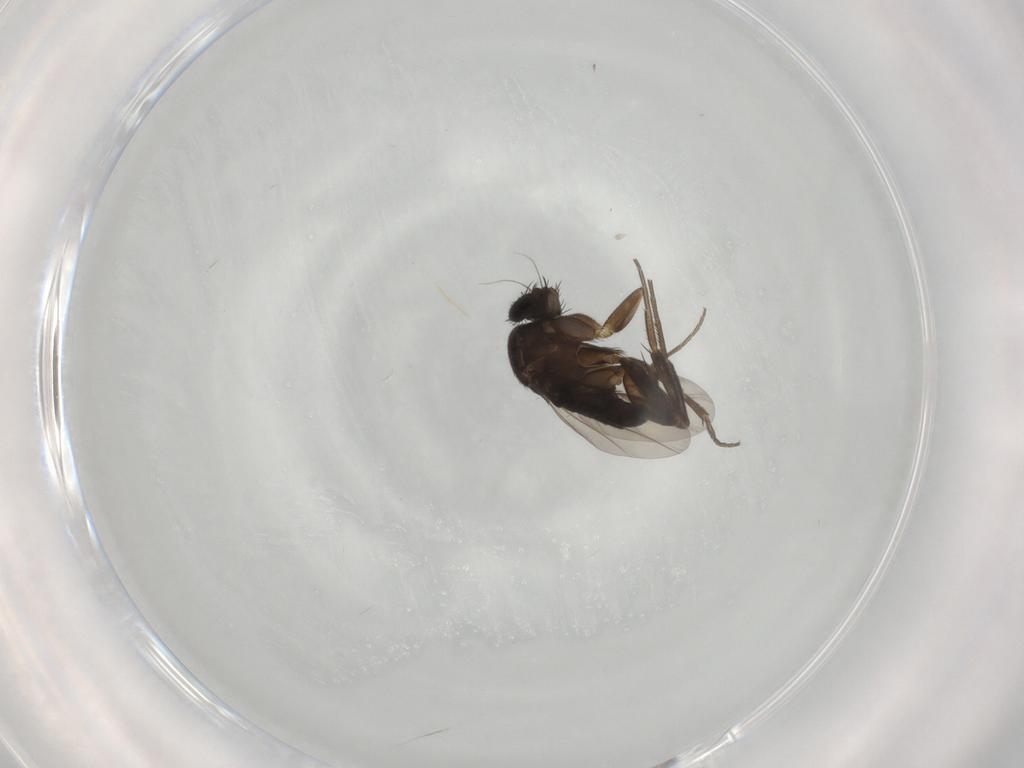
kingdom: Animalia
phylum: Arthropoda
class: Insecta
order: Diptera
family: Phoridae
